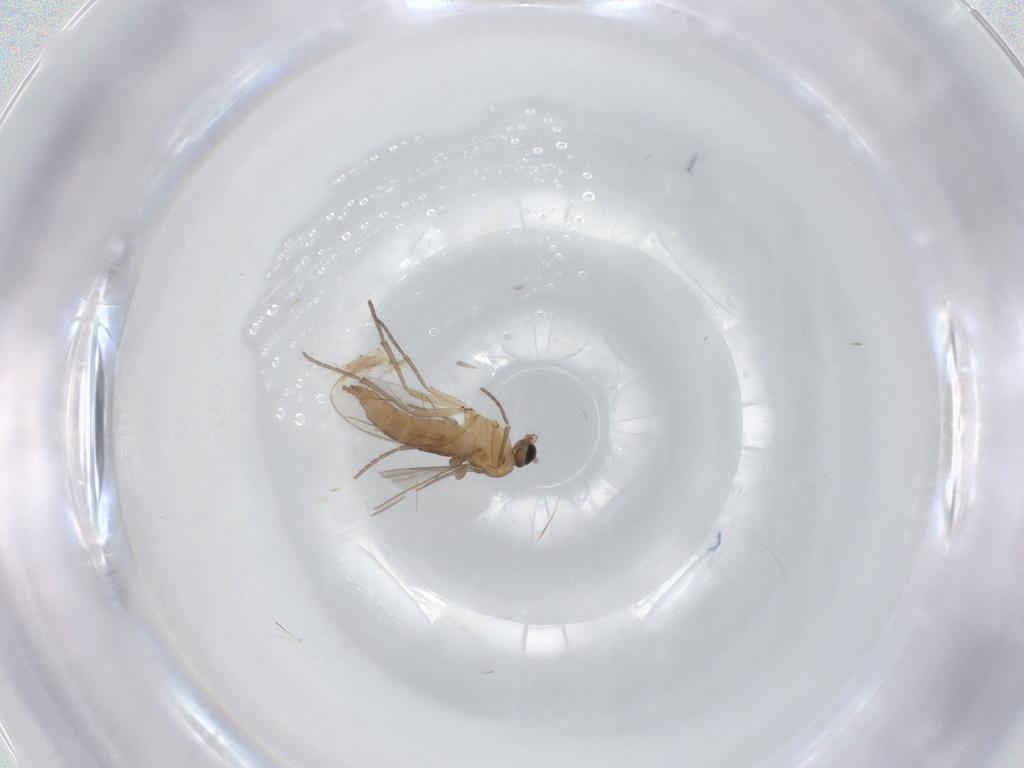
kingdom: Animalia
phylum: Arthropoda
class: Insecta
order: Diptera
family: Sciaridae
